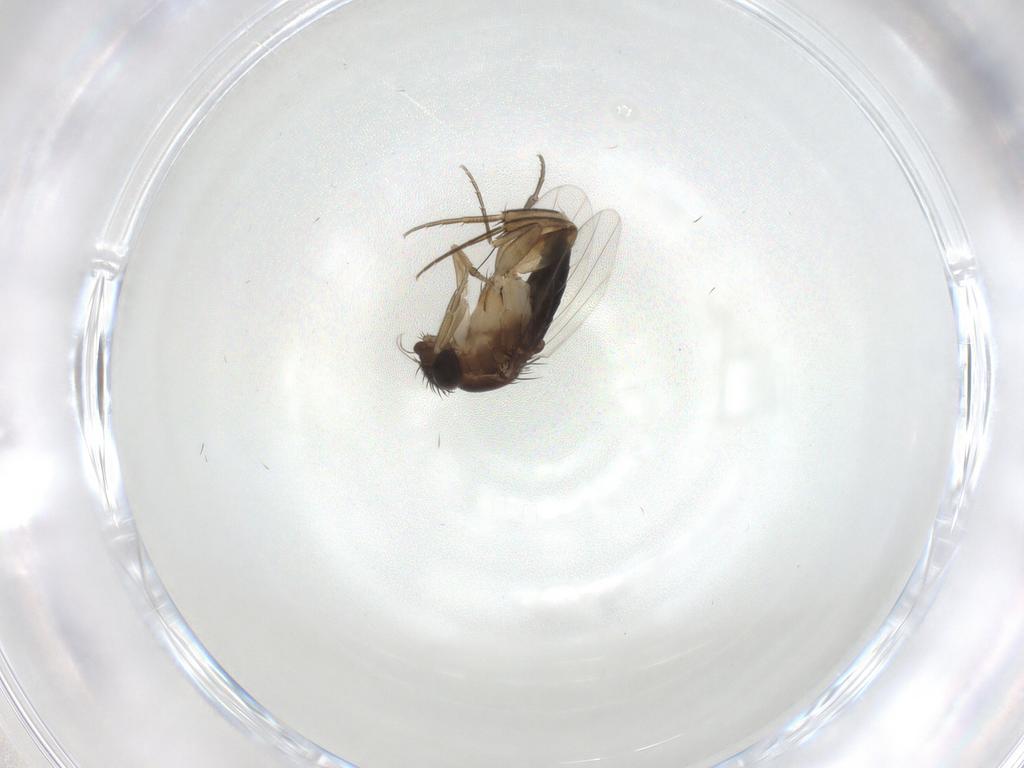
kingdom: Animalia
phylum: Arthropoda
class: Insecta
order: Diptera
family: Phoridae
